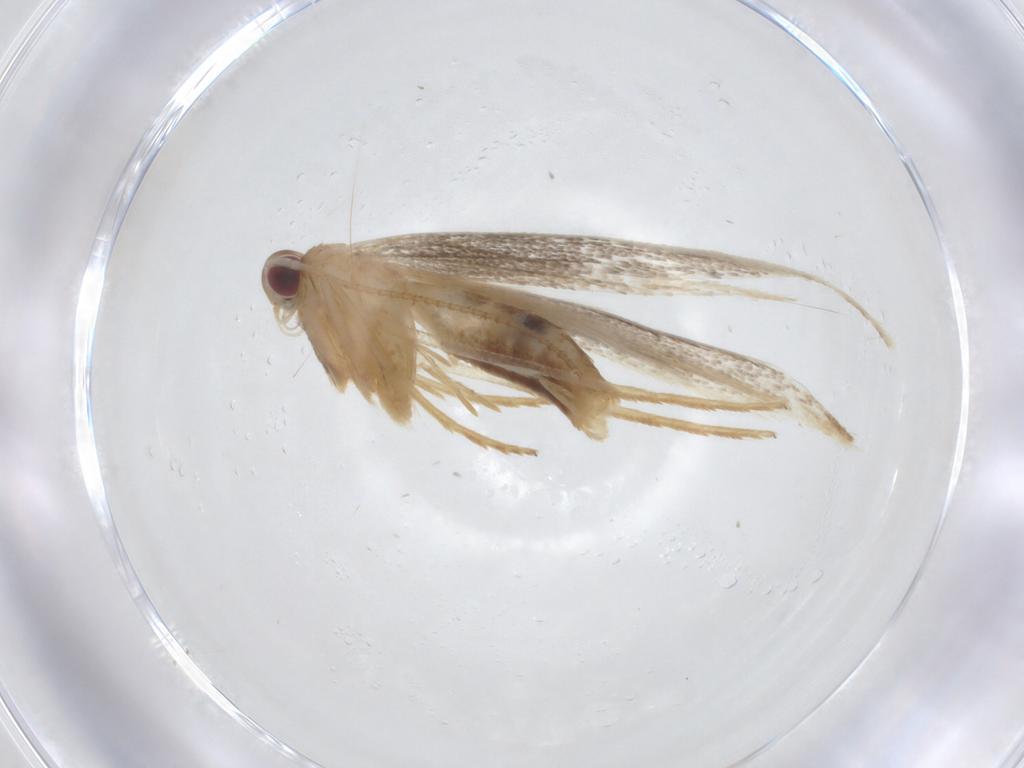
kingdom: Animalia
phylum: Arthropoda
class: Insecta
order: Lepidoptera
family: Cosmopterigidae
